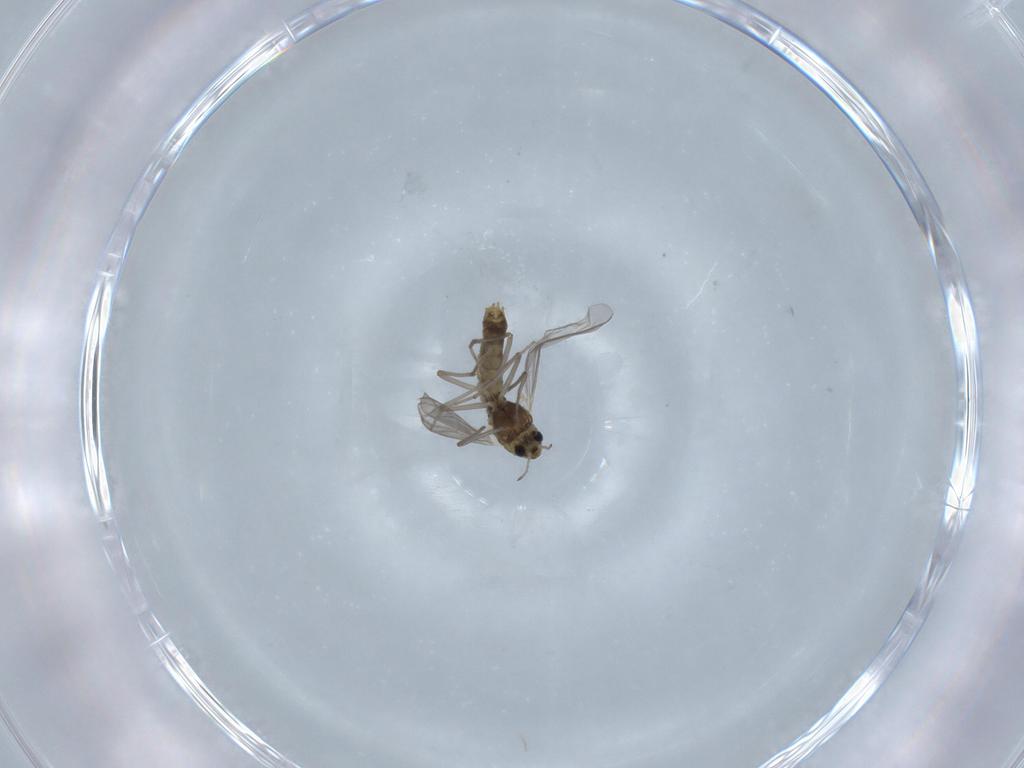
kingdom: Animalia
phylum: Arthropoda
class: Insecta
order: Diptera
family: Chironomidae
